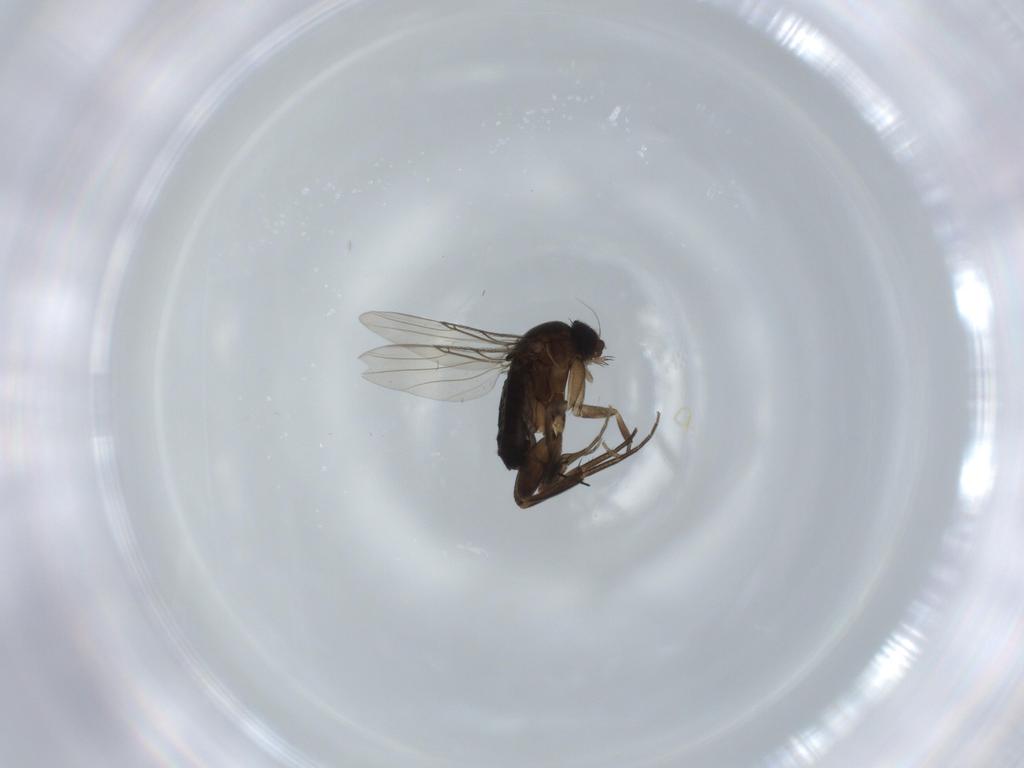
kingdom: Animalia
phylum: Arthropoda
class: Insecta
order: Diptera
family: Phoridae
